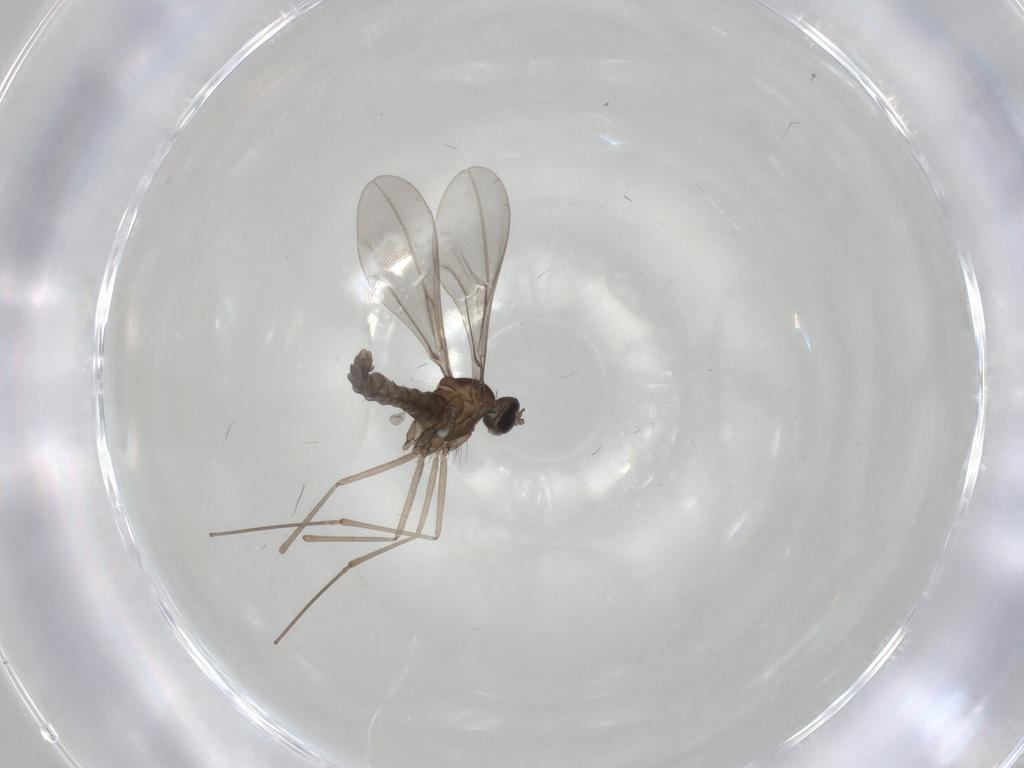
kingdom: Animalia
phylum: Arthropoda
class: Insecta
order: Diptera
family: Cecidomyiidae
